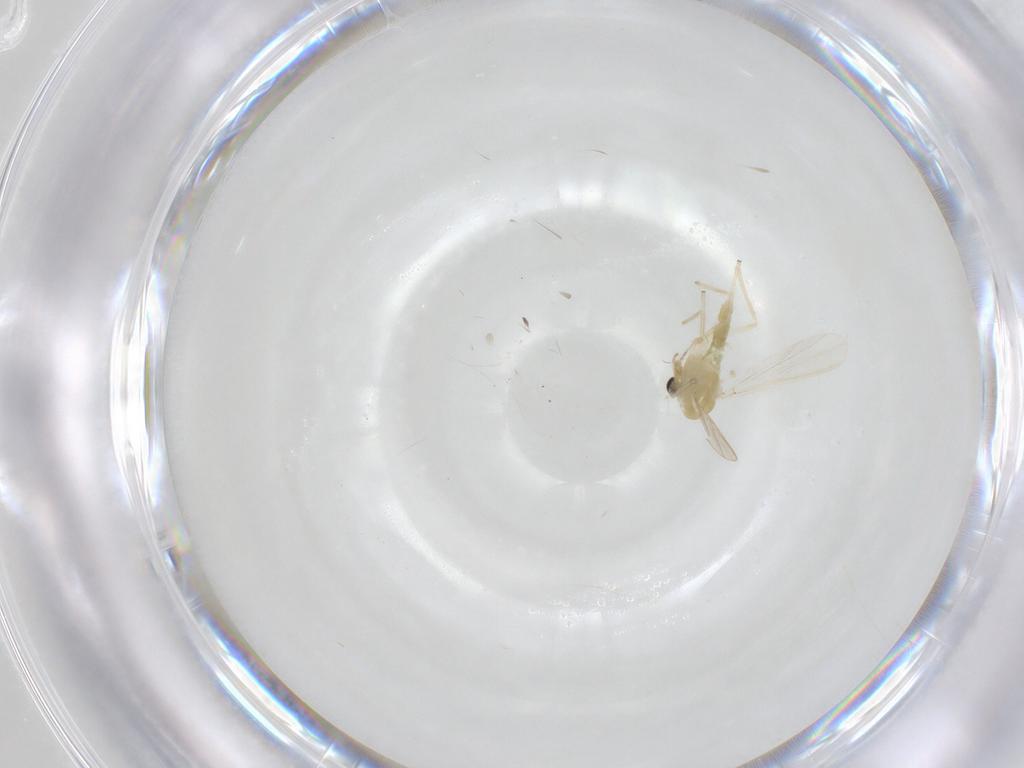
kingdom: Animalia
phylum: Arthropoda
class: Insecta
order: Diptera
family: Chironomidae
